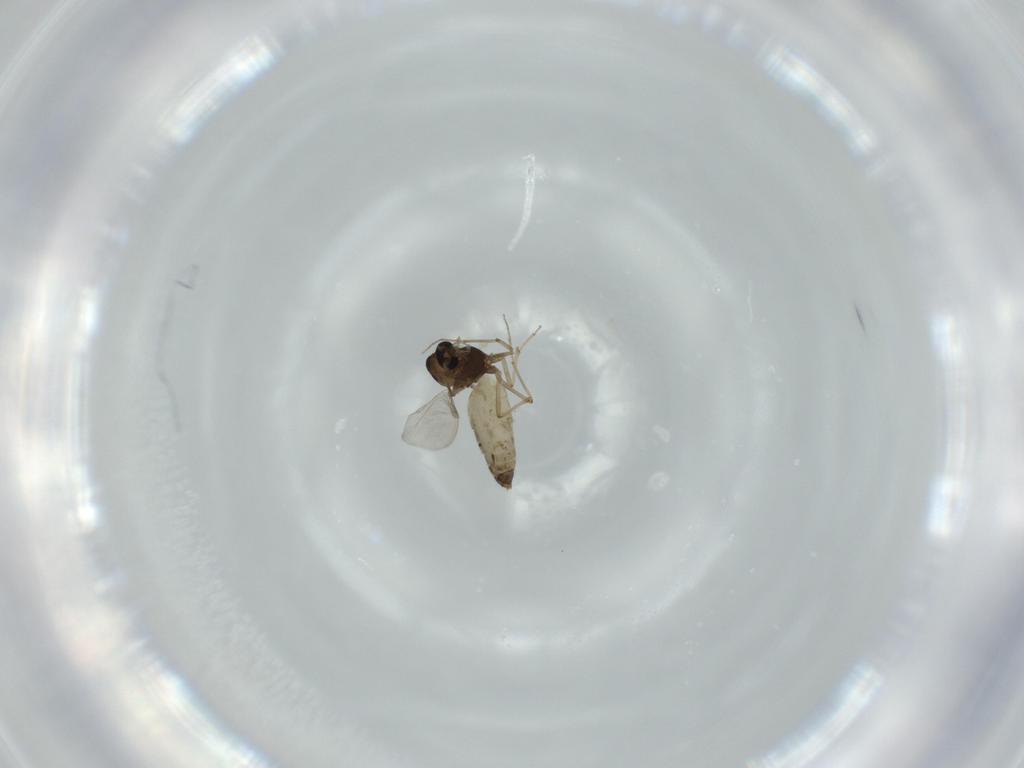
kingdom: Animalia
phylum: Arthropoda
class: Insecta
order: Diptera
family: Chironomidae
